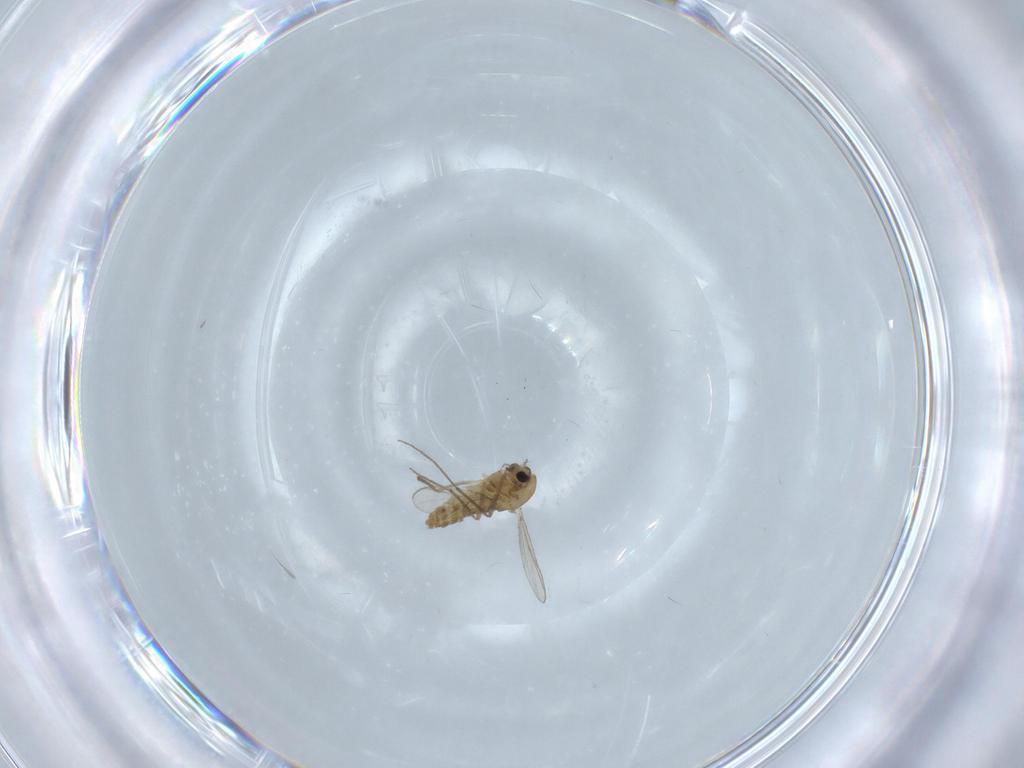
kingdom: Animalia
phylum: Arthropoda
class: Insecta
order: Diptera
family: Chironomidae
